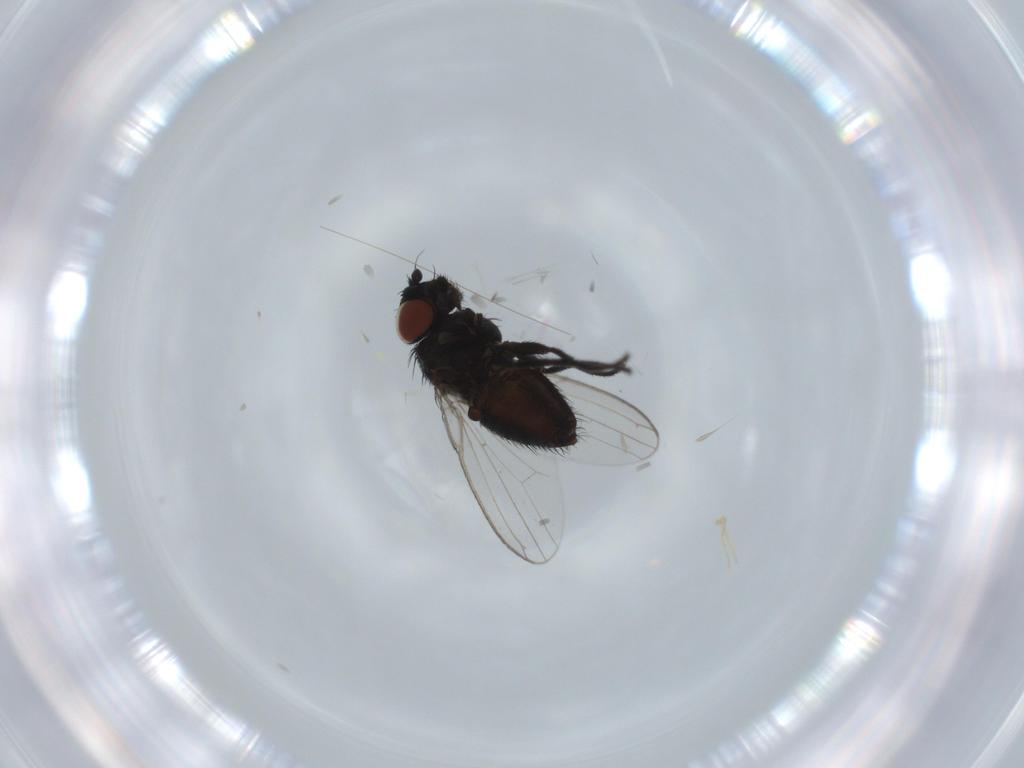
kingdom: Animalia
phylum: Arthropoda
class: Insecta
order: Diptera
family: Milichiidae
